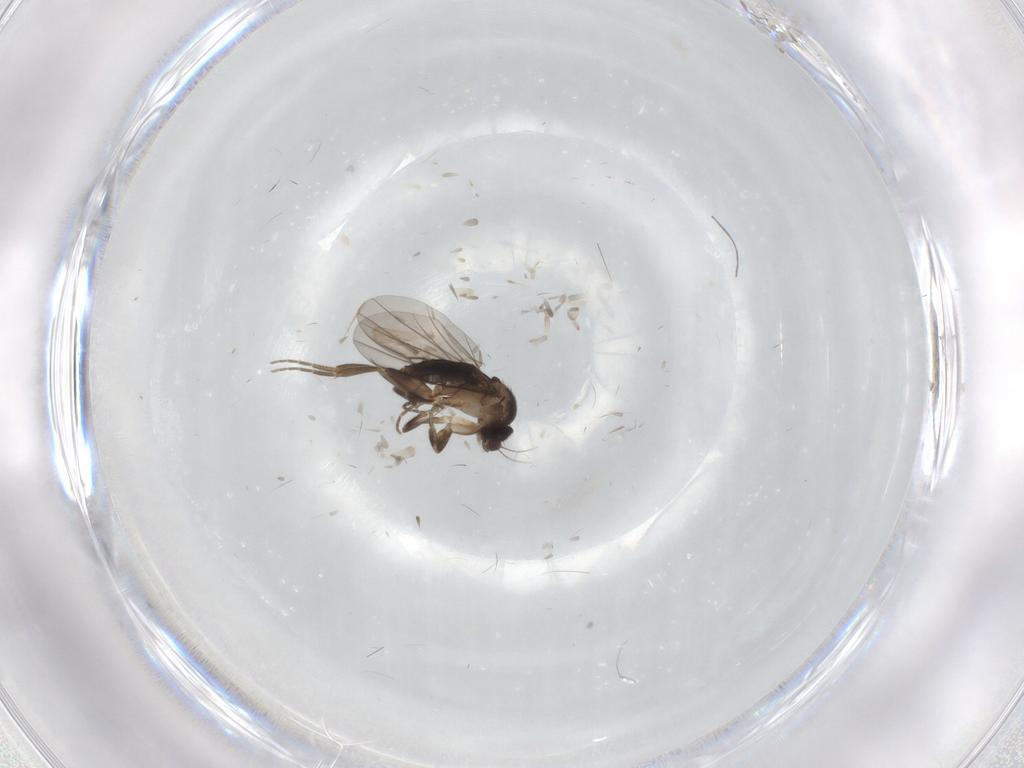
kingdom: Animalia
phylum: Arthropoda
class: Insecta
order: Diptera
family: Phoridae
